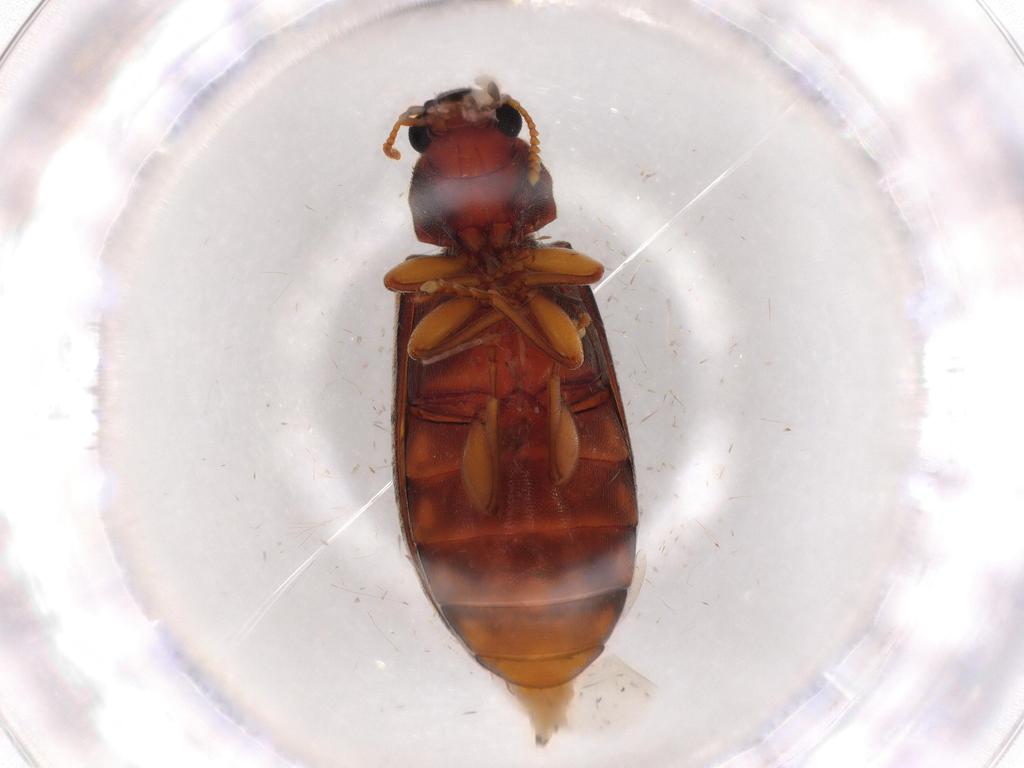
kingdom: Animalia
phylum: Arthropoda
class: Insecta
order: Coleoptera
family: Mycteridae
